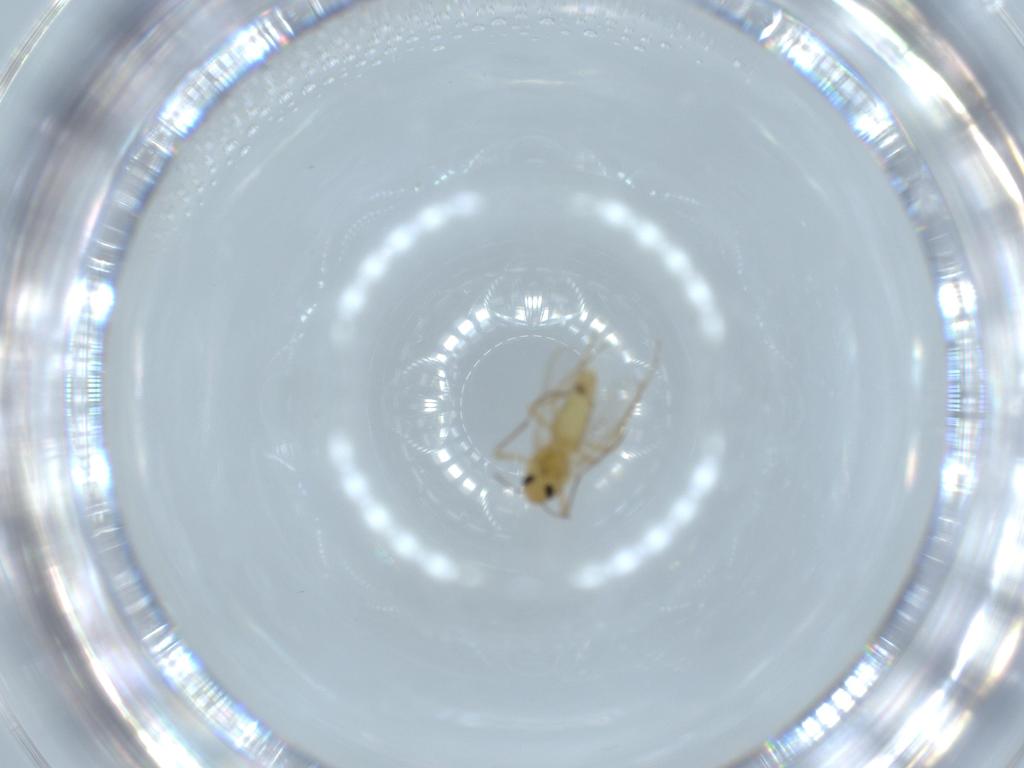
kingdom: Animalia
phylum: Arthropoda
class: Insecta
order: Diptera
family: Chironomidae
